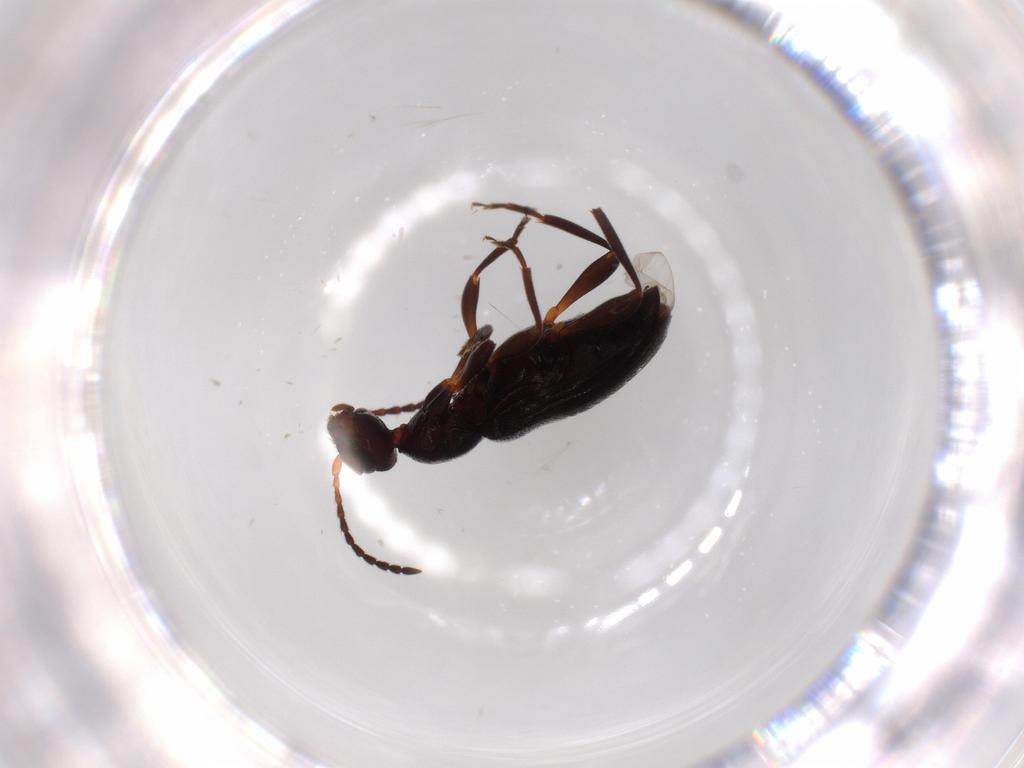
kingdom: Animalia
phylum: Arthropoda
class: Insecta
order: Coleoptera
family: Anthicidae
